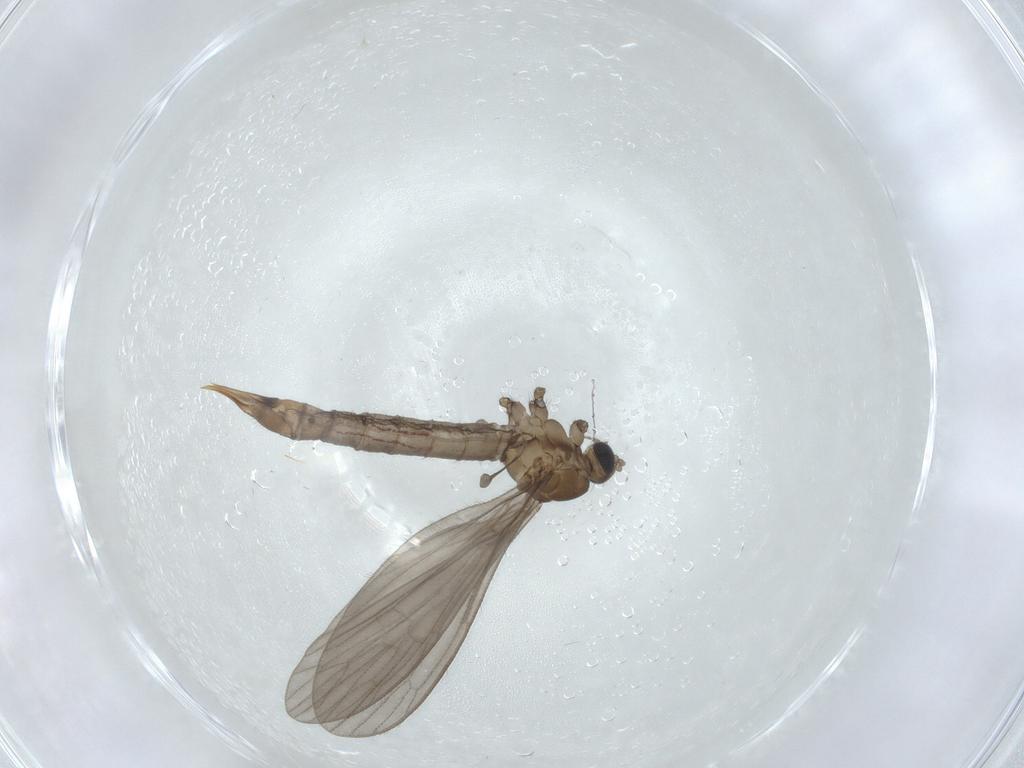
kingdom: Animalia
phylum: Arthropoda
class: Insecta
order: Diptera
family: Limoniidae
